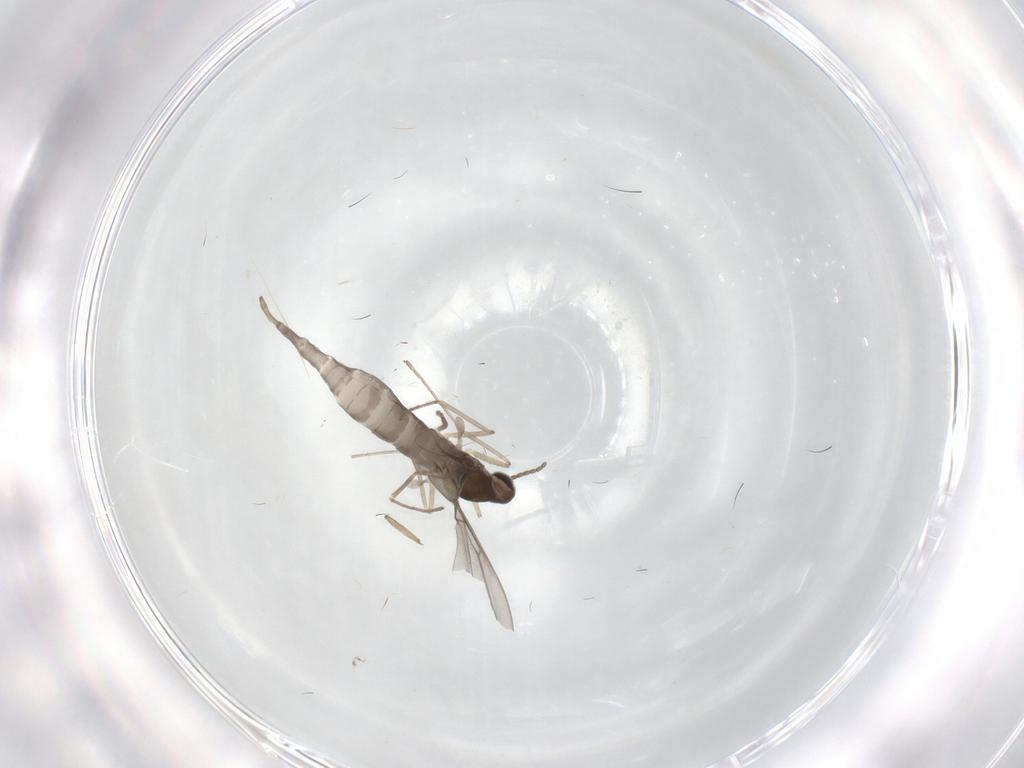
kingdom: Animalia
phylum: Arthropoda
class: Insecta
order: Diptera
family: Cecidomyiidae
